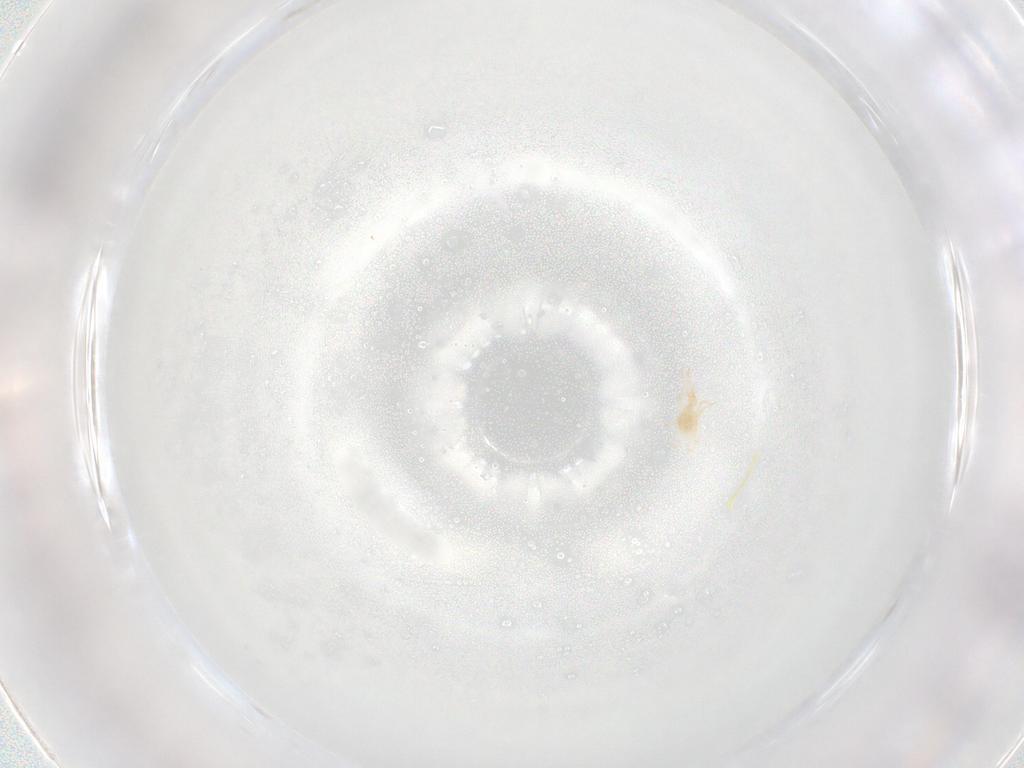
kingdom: Animalia
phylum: Arthropoda
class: Arachnida
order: Trombidiformes
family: Cunaxidae
